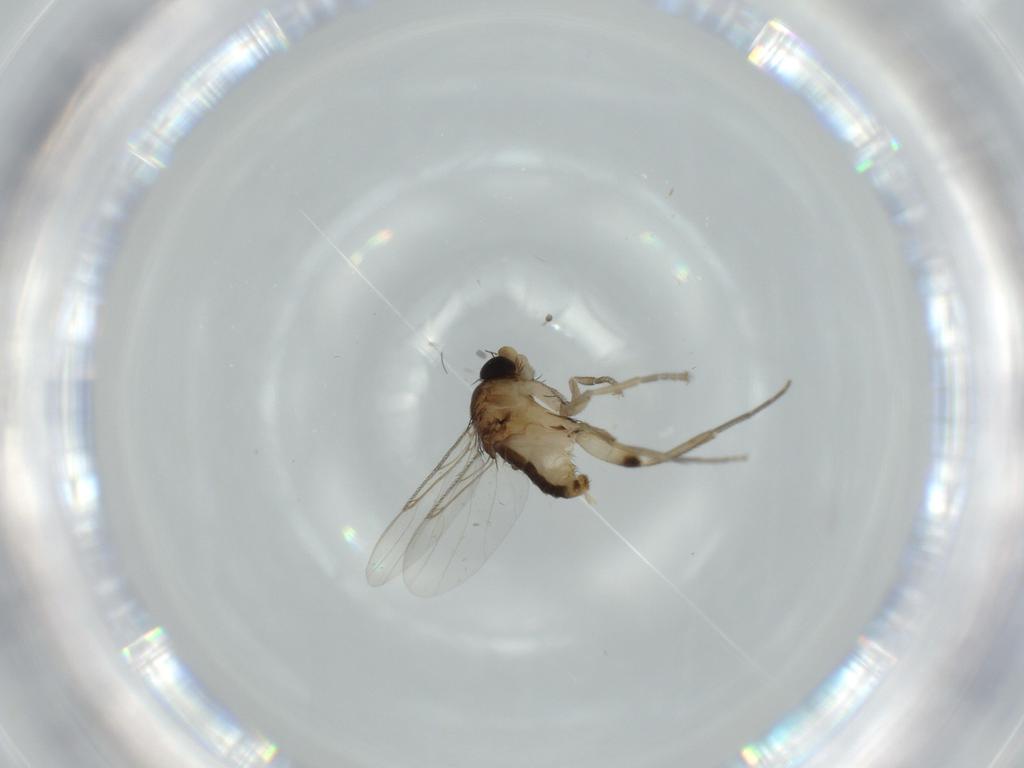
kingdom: Animalia
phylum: Arthropoda
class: Insecta
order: Diptera
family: Phoridae
